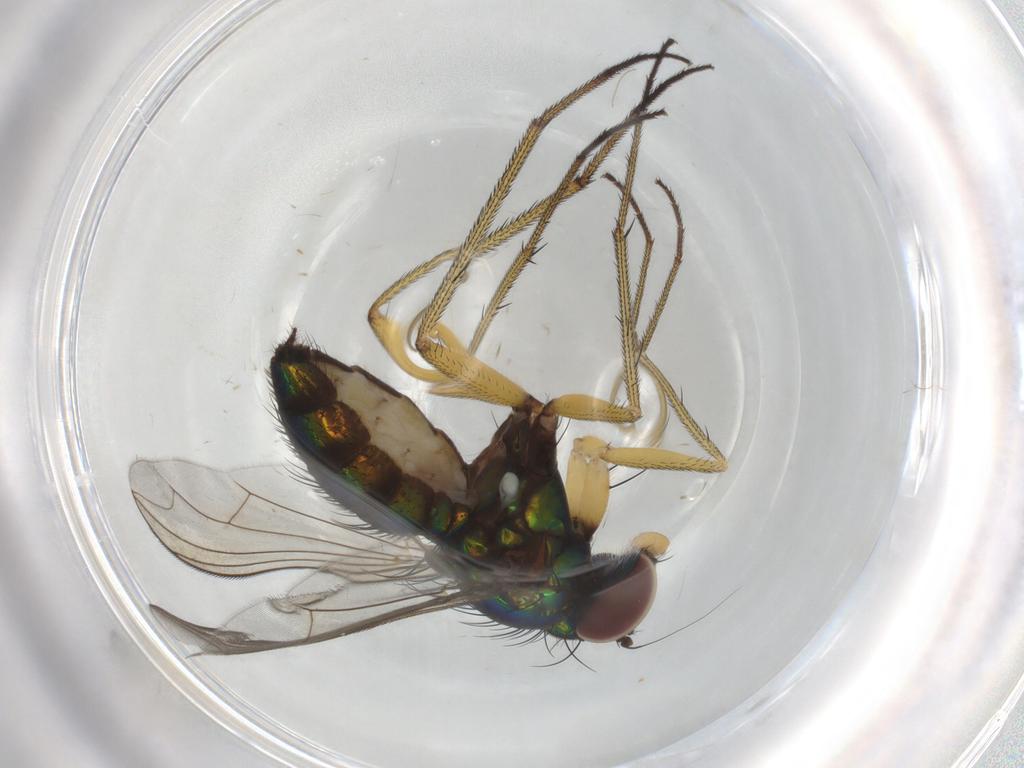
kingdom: Animalia
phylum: Arthropoda
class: Insecta
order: Diptera
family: Dolichopodidae
